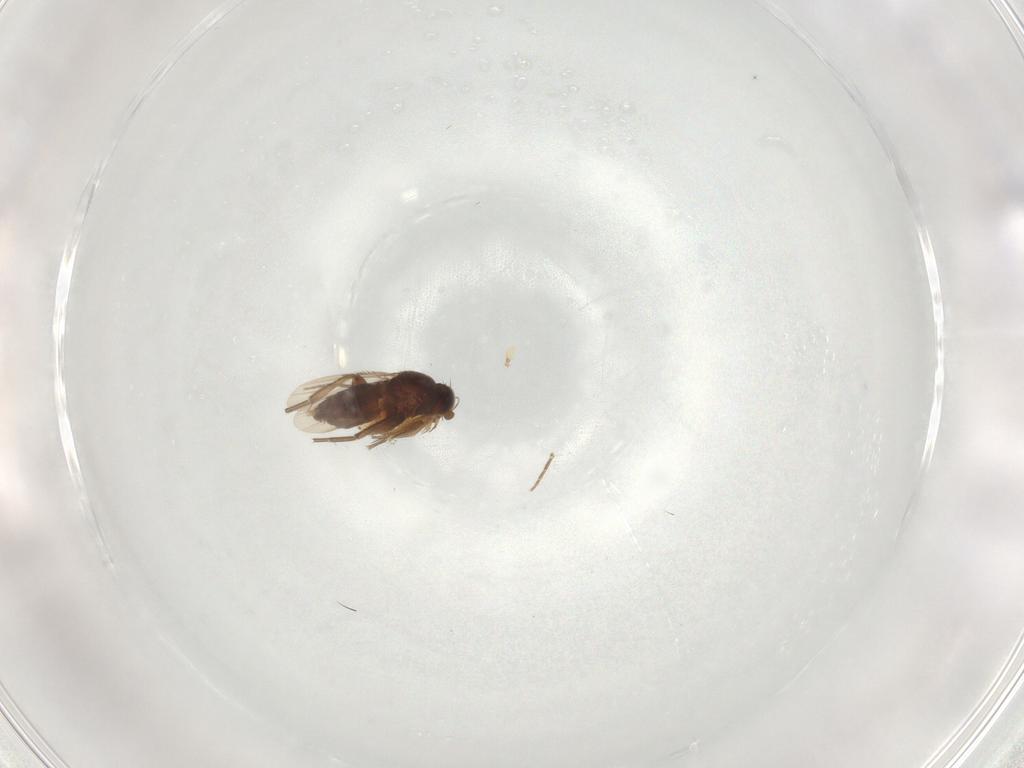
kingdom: Animalia
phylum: Arthropoda
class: Insecta
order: Diptera
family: Phoridae
